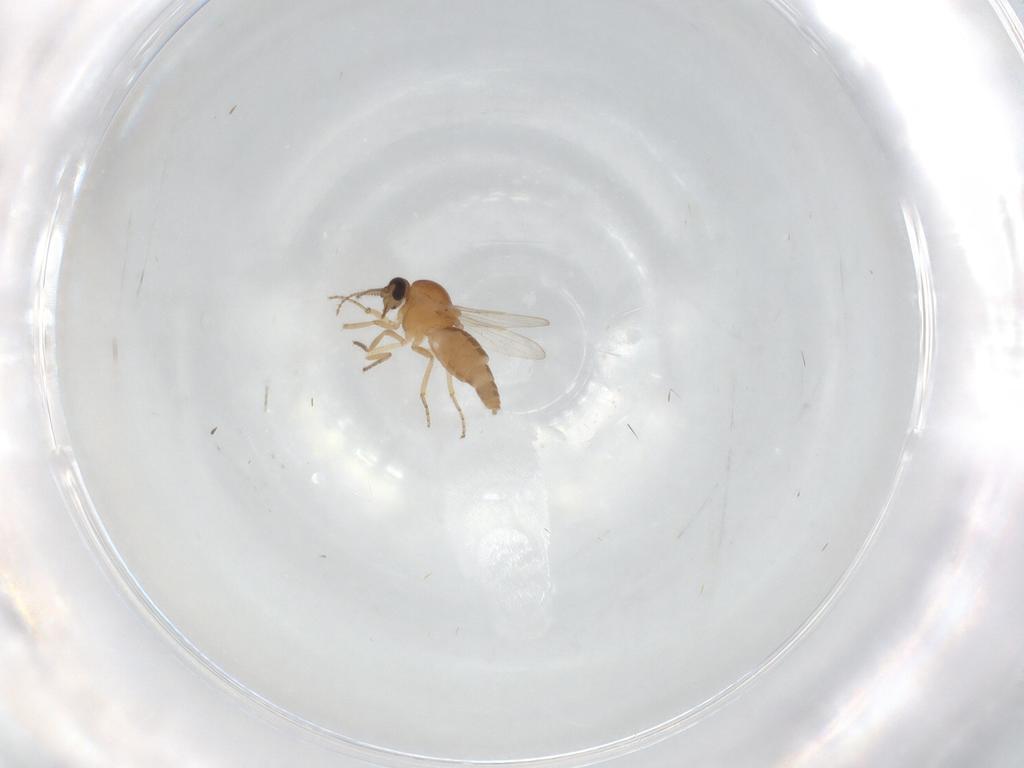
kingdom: Animalia
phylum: Arthropoda
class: Insecta
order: Diptera
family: Ceratopogonidae
